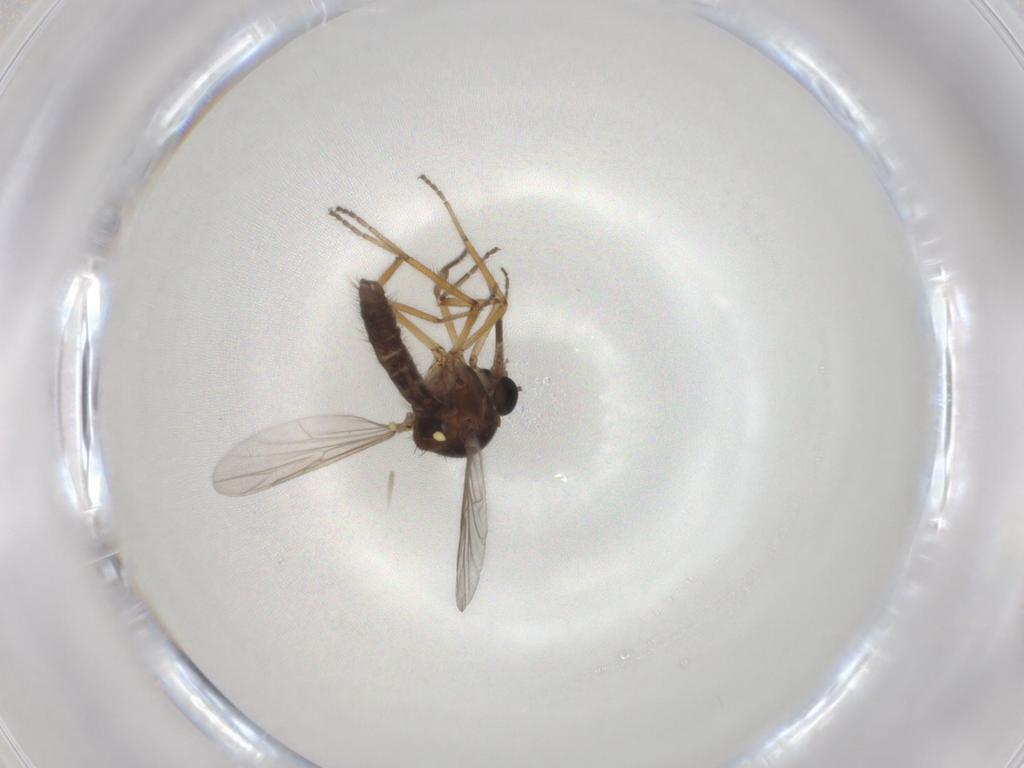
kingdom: Animalia
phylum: Arthropoda
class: Insecta
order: Diptera
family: Ceratopogonidae
